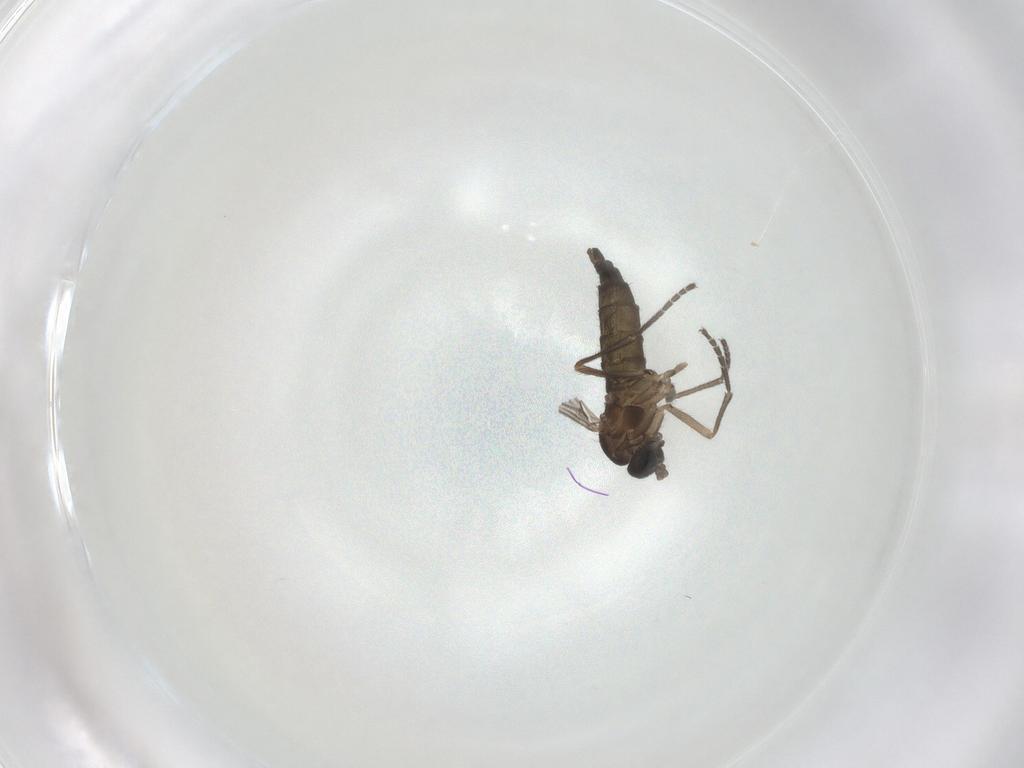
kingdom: Animalia
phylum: Arthropoda
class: Insecta
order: Diptera
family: Sciaridae
